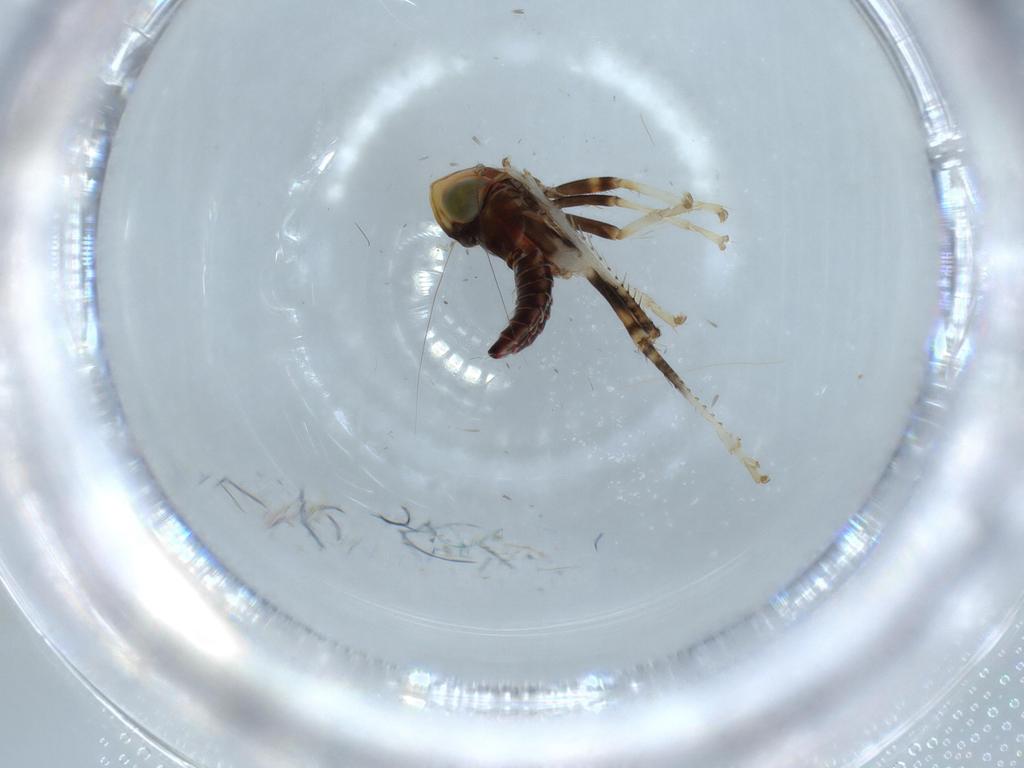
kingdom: Animalia
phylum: Arthropoda
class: Insecta
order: Hemiptera
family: Cicadellidae
